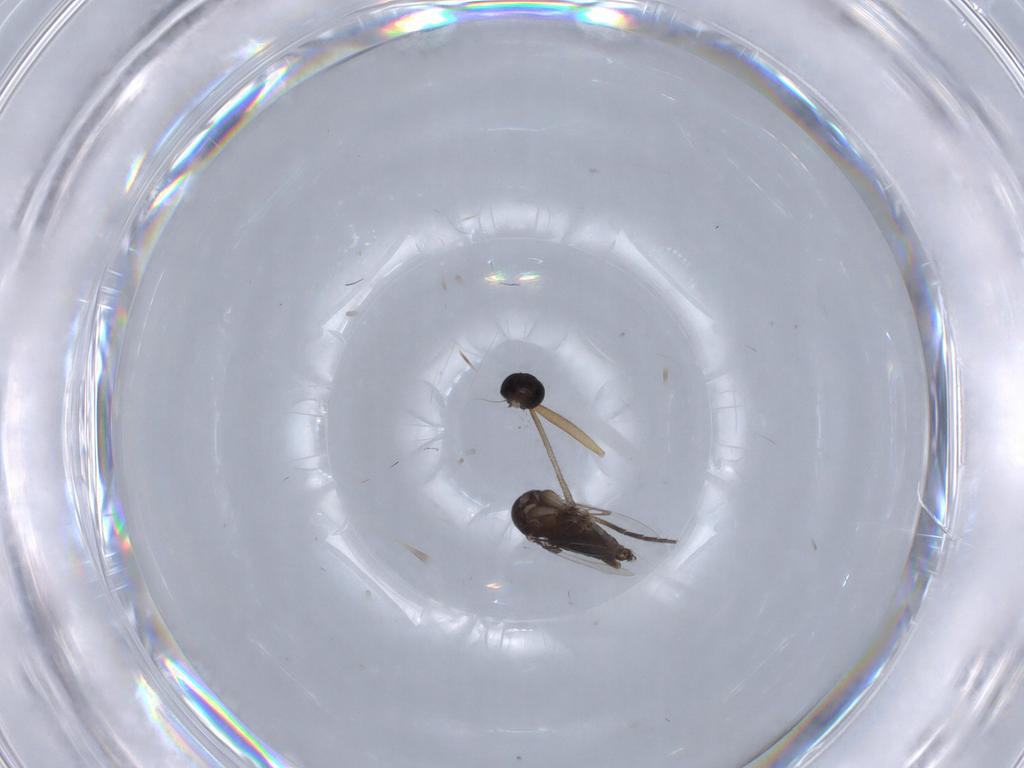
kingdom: Animalia
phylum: Arthropoda
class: Insecta
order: Diptera
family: Phoridae
